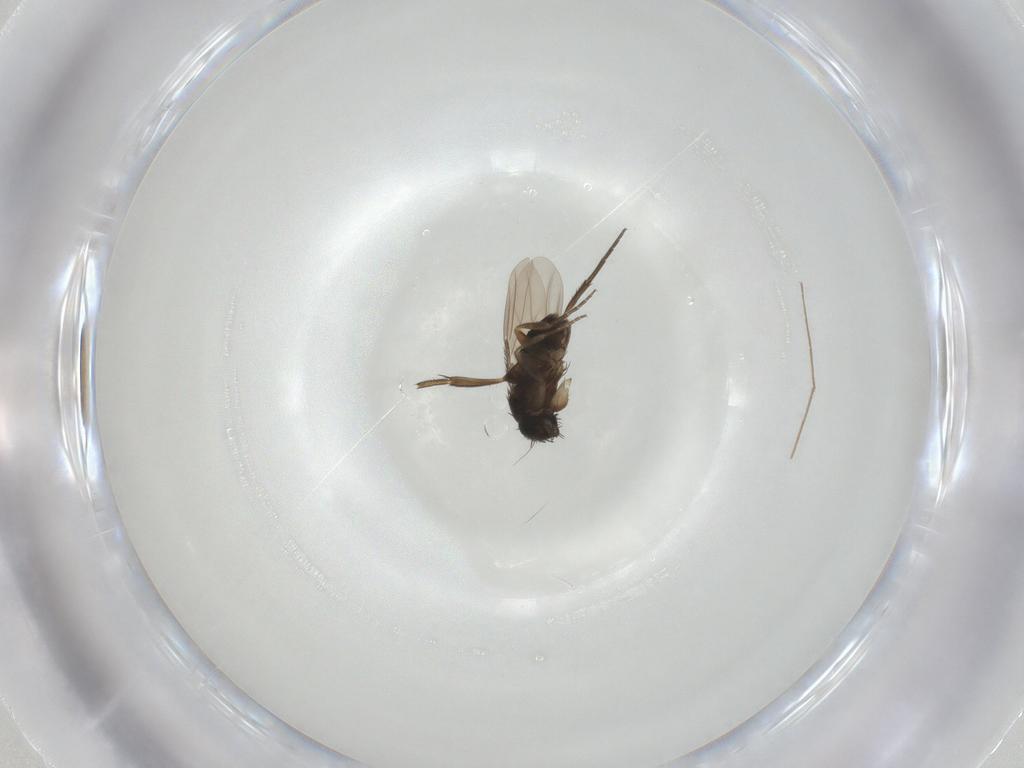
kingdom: Animalia
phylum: Arthropoda
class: Insecta
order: Diptera
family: Phoridae
